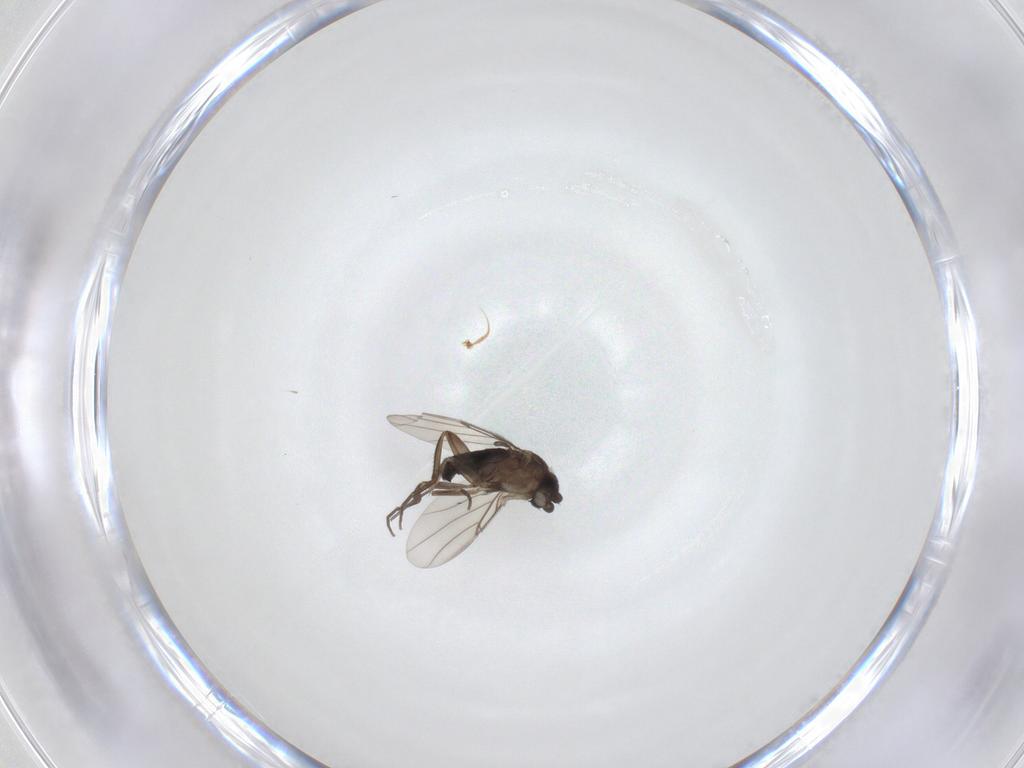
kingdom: Animalia
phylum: Arthropoda
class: Insecta
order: Diptera
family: Phoridae
